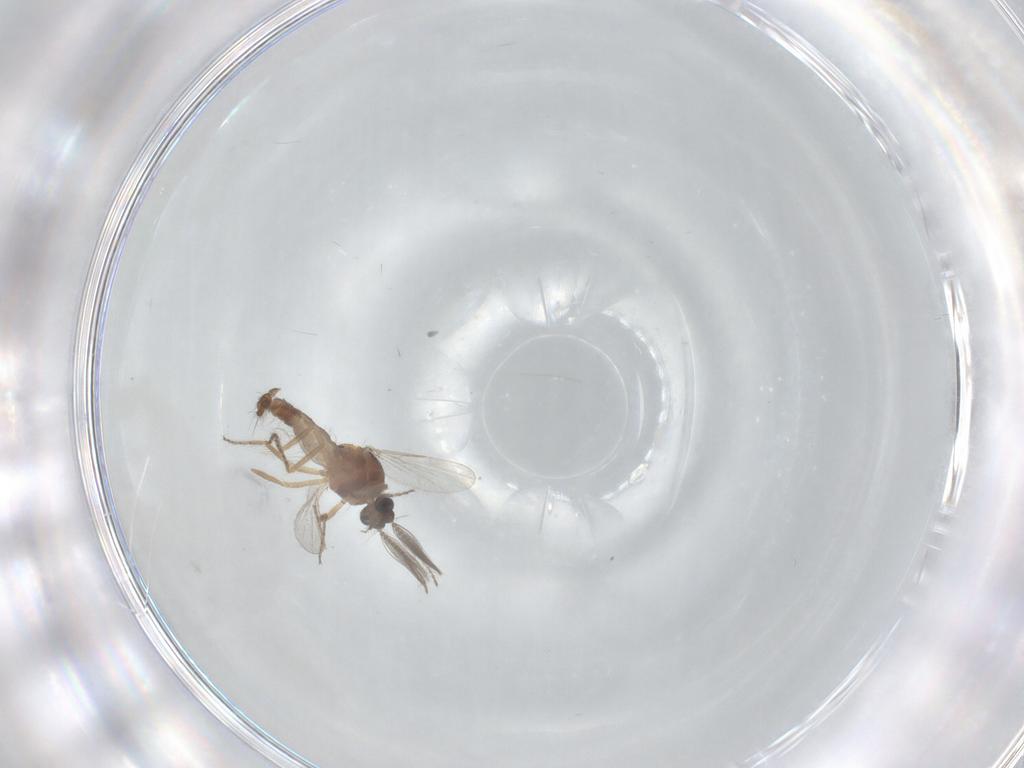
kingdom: Animalia
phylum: Arthropoda
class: Insecta
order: Diptera
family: Ceratopogonidae
